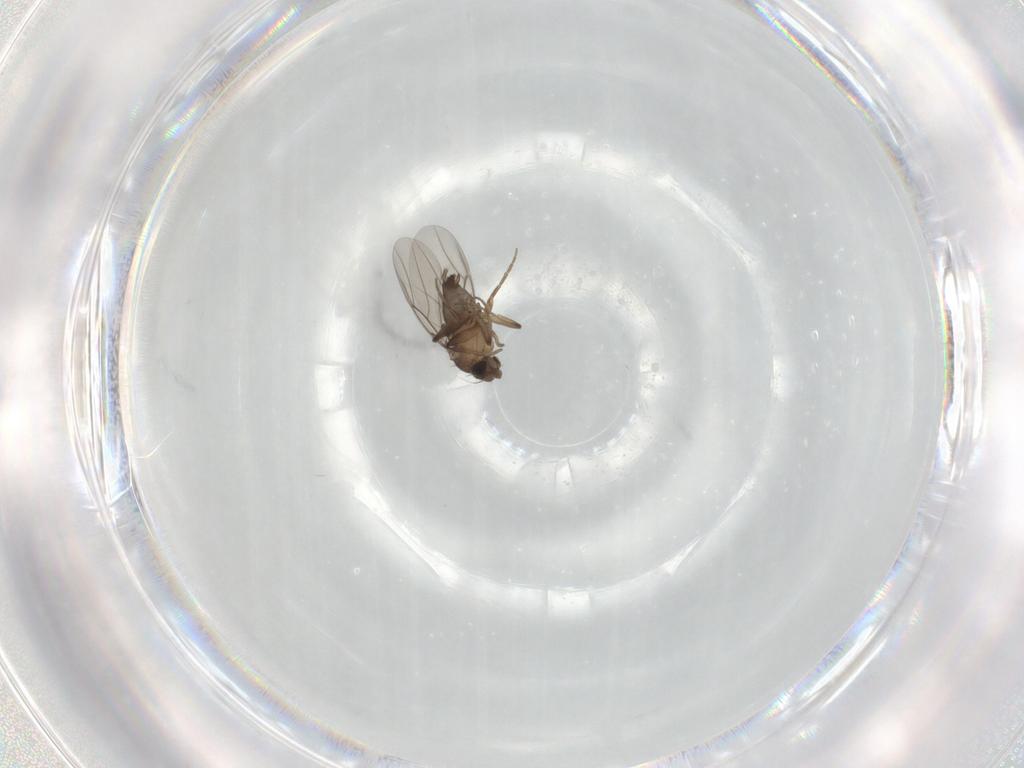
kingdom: Animalia
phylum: Arthropoda
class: Insecta
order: Diptera
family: Phoridae
